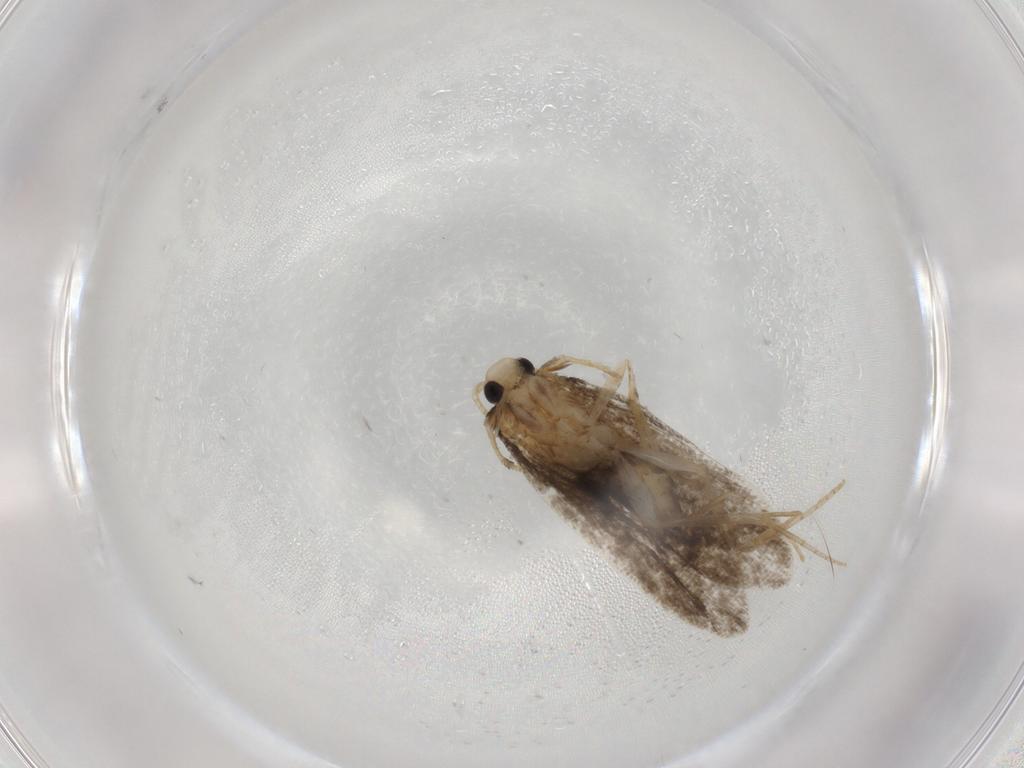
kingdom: Animalia
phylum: Arthropoda
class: Insecta
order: Lepidoptera
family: Psychidae
